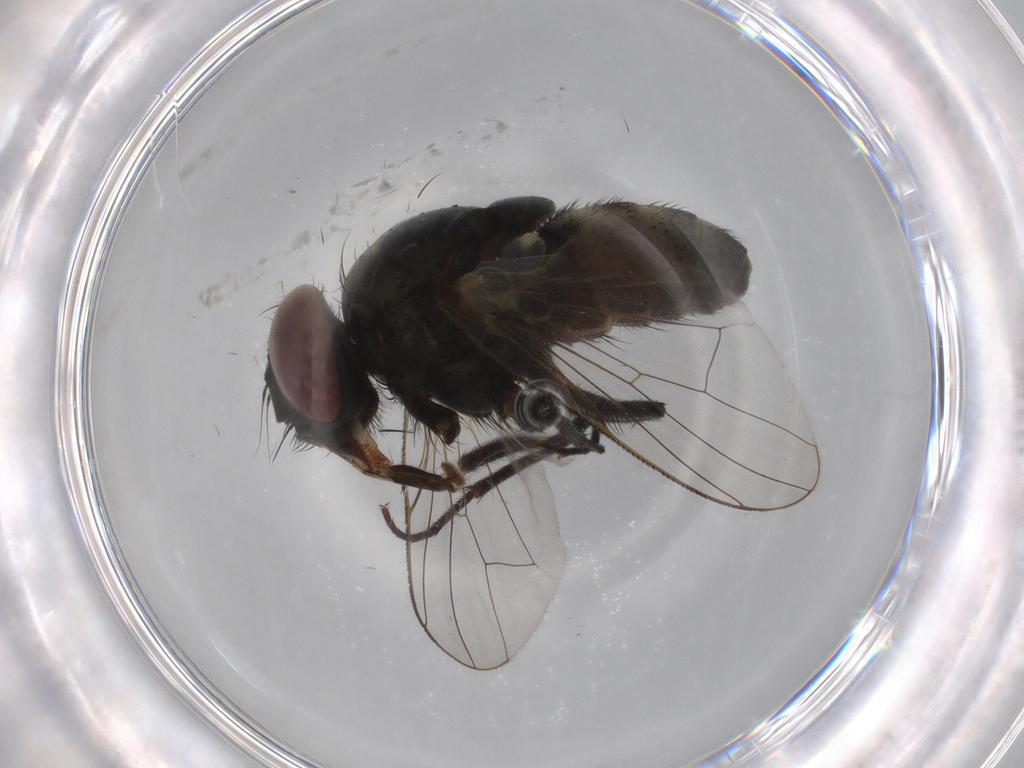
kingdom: Animalia
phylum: Arthropoda
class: Insecta
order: Diptera
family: Muscidae
